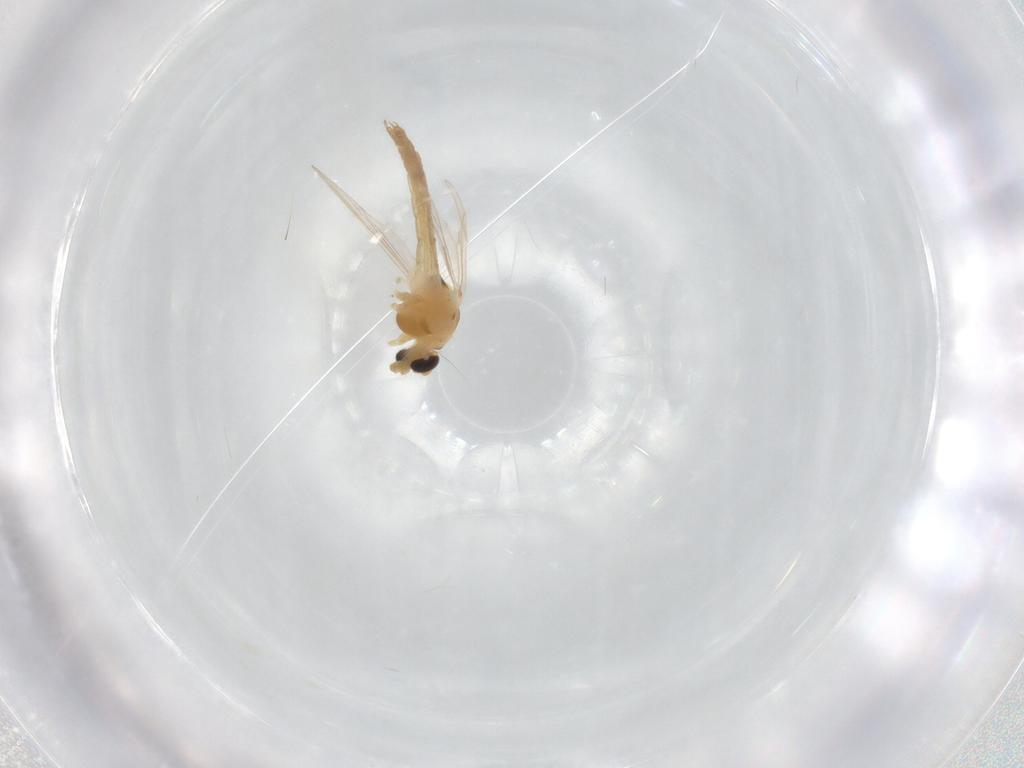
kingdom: Animalia
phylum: Arthropoda
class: Insecta
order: Diptera
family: Chironomidae
